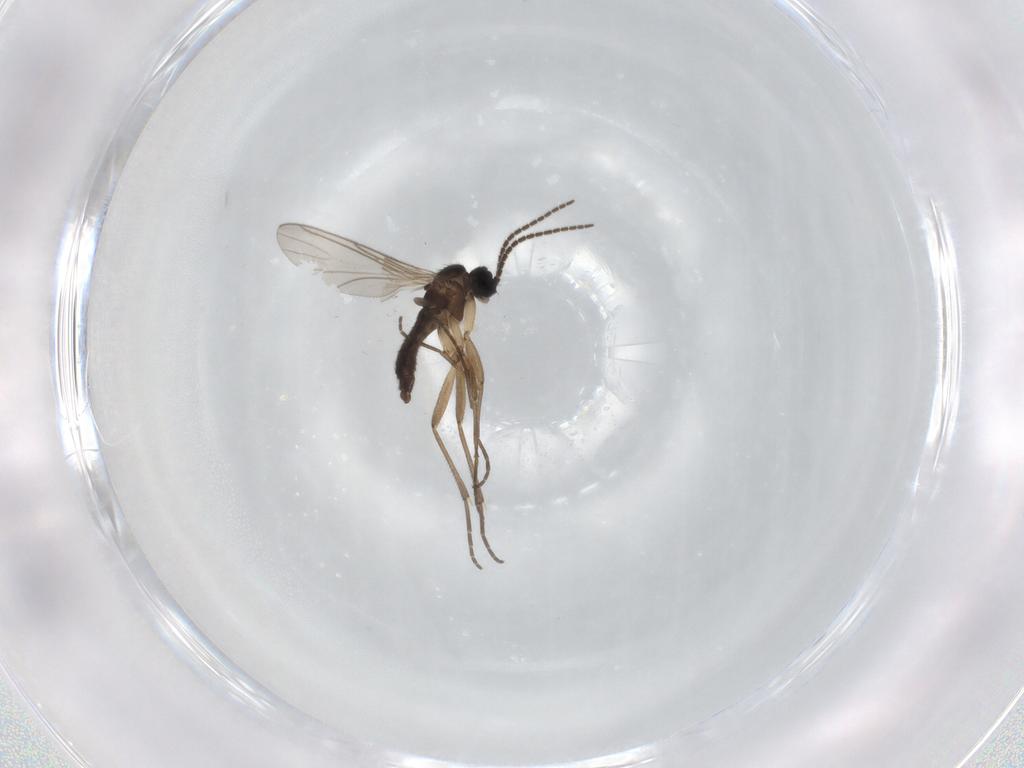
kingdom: Animalia
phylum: Arthropoda
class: Insecta
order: Diptera
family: Sciaridae
